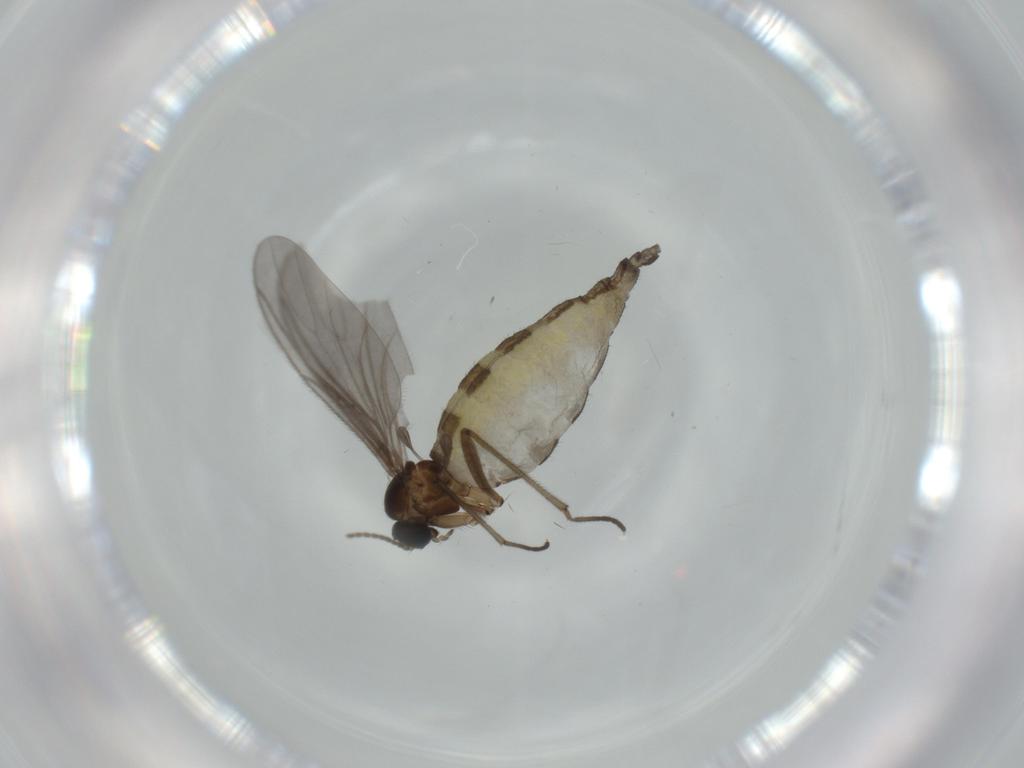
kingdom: Animalia
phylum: Arthropoda
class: Insecta
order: Diptera
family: Sciaridae
